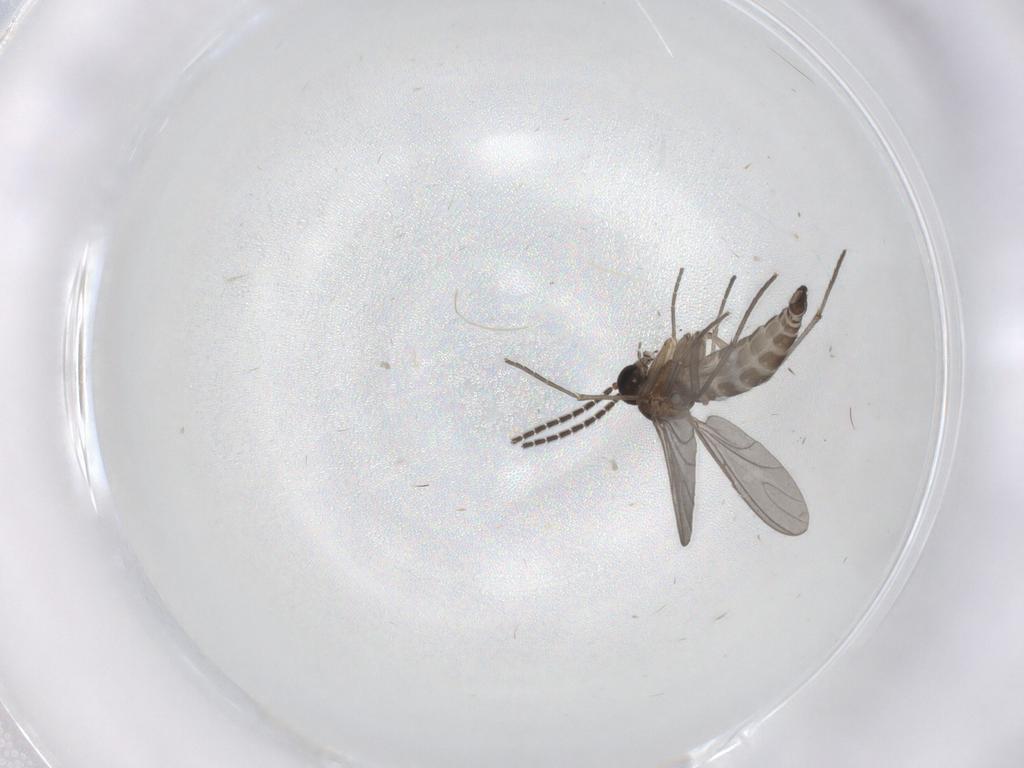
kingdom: Animalia
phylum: Arthropoda
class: Insecta
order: Diptera
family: Sciaridae
